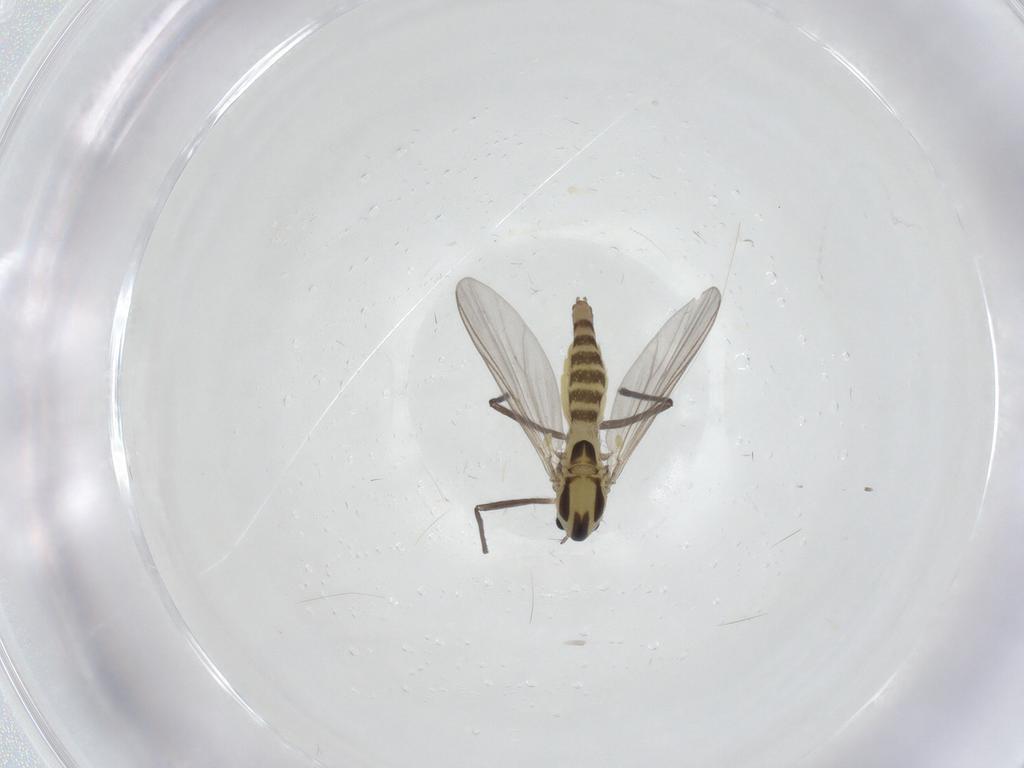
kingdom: Animalia
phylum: Arthropoda
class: Insecta
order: Diptera
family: Chironomidae
